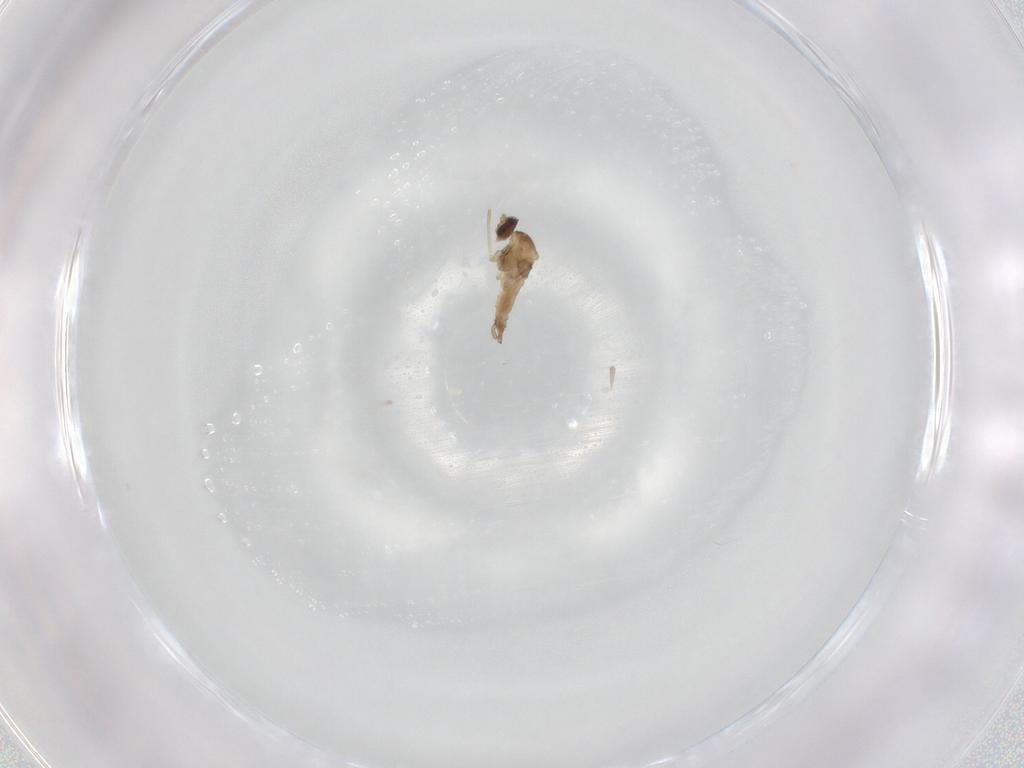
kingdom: Animalia
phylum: Arthropoda
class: Insecta
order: Diptera
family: Cecidomyiidae
